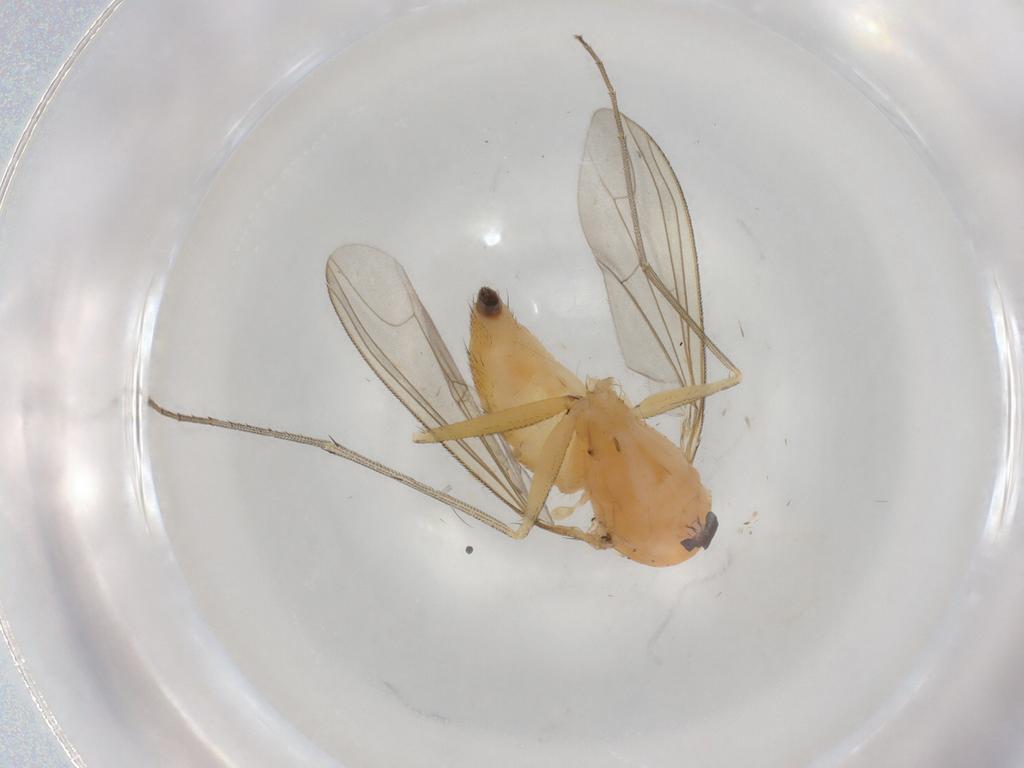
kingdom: Animalia
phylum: Arthropoda
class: Insecta
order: Diptera
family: Dolichopodidae
